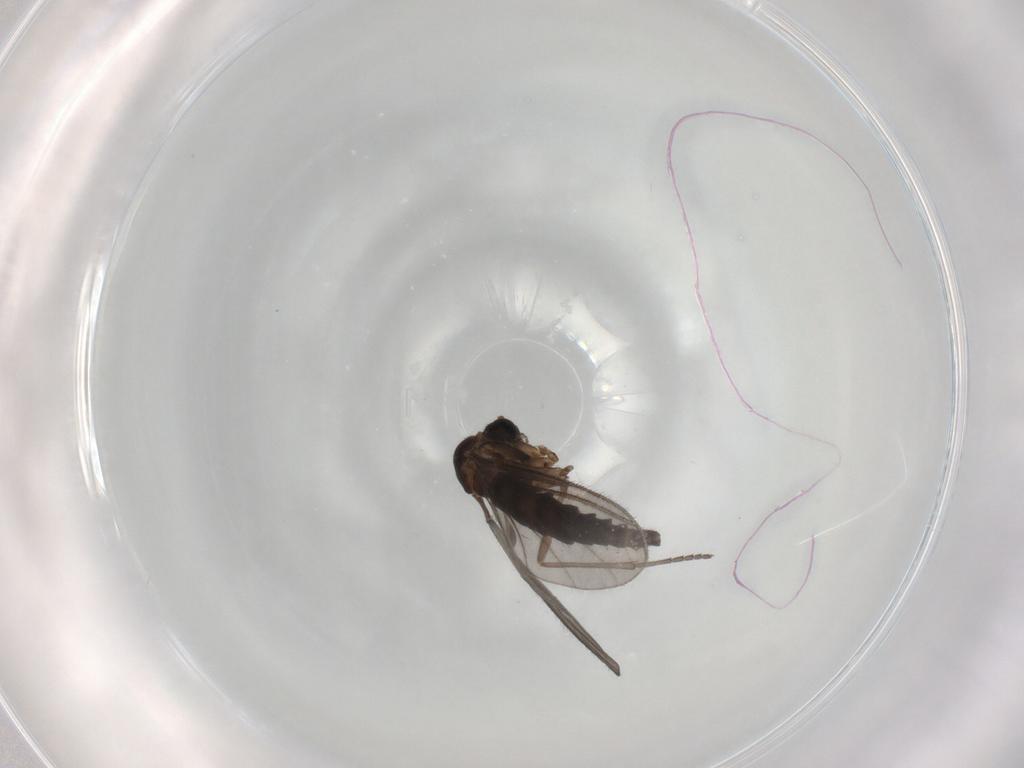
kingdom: Animalia
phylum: Arthropoda
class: Insecta
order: Diptera
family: Sciaridae
